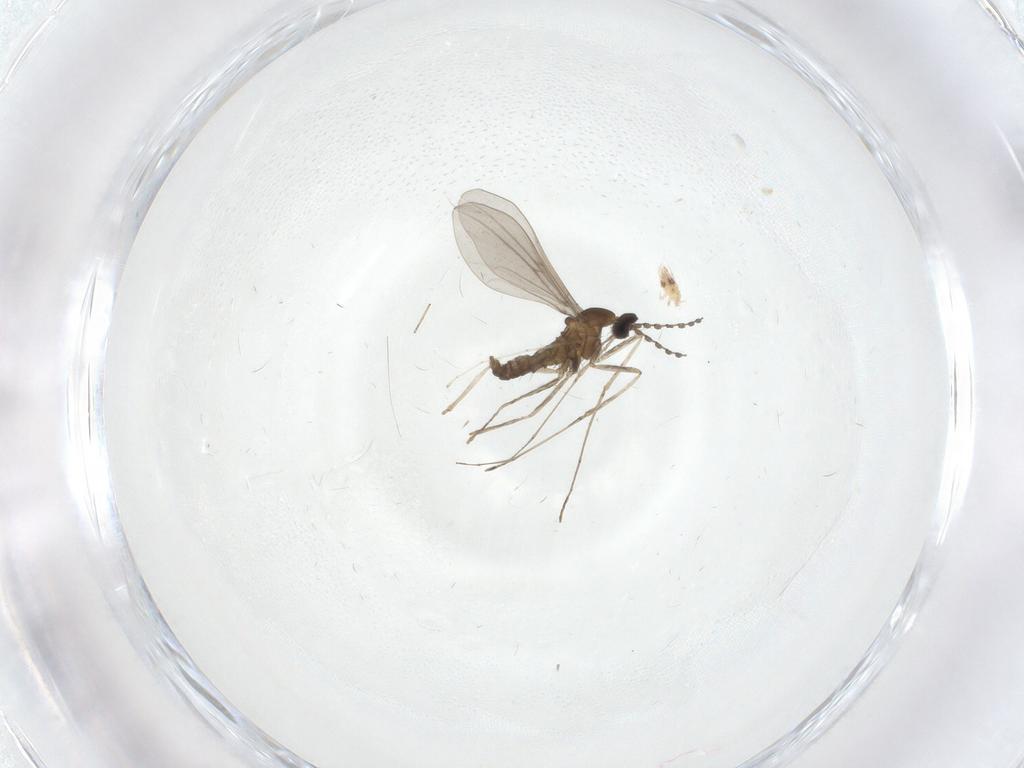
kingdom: Animalia
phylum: Arthropoda
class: Insecta
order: Diptera
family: Cecidomyiidae
